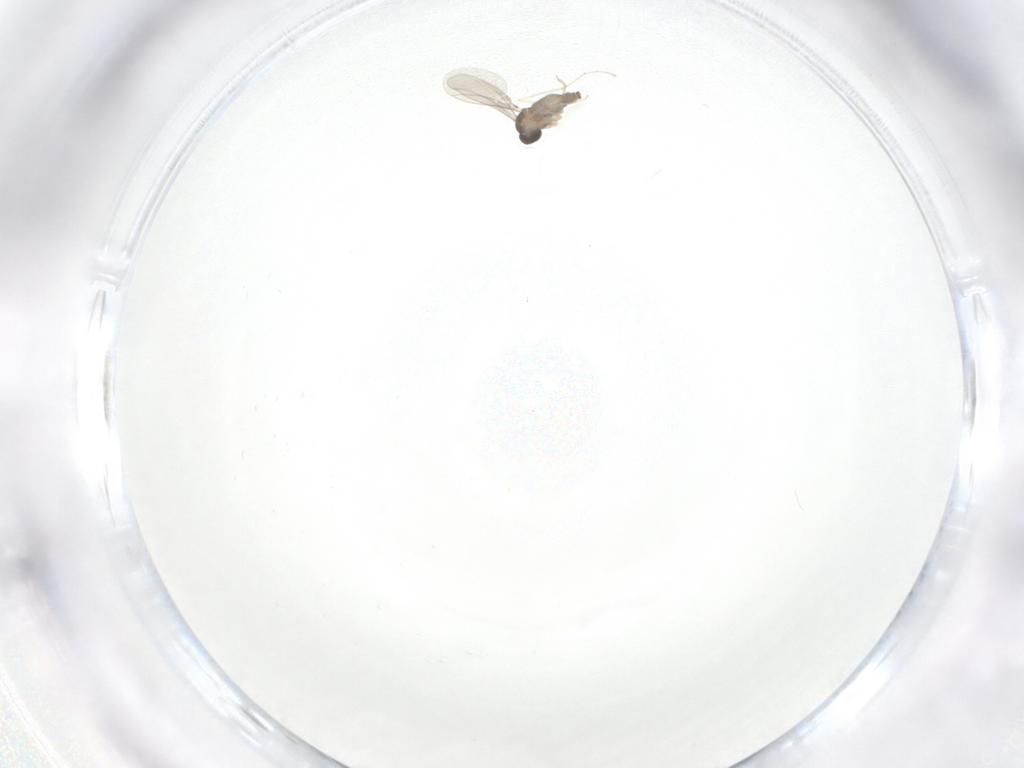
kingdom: Animalia
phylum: Arthropoda
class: Insecta
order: Diptera
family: Cecidomyiidae
